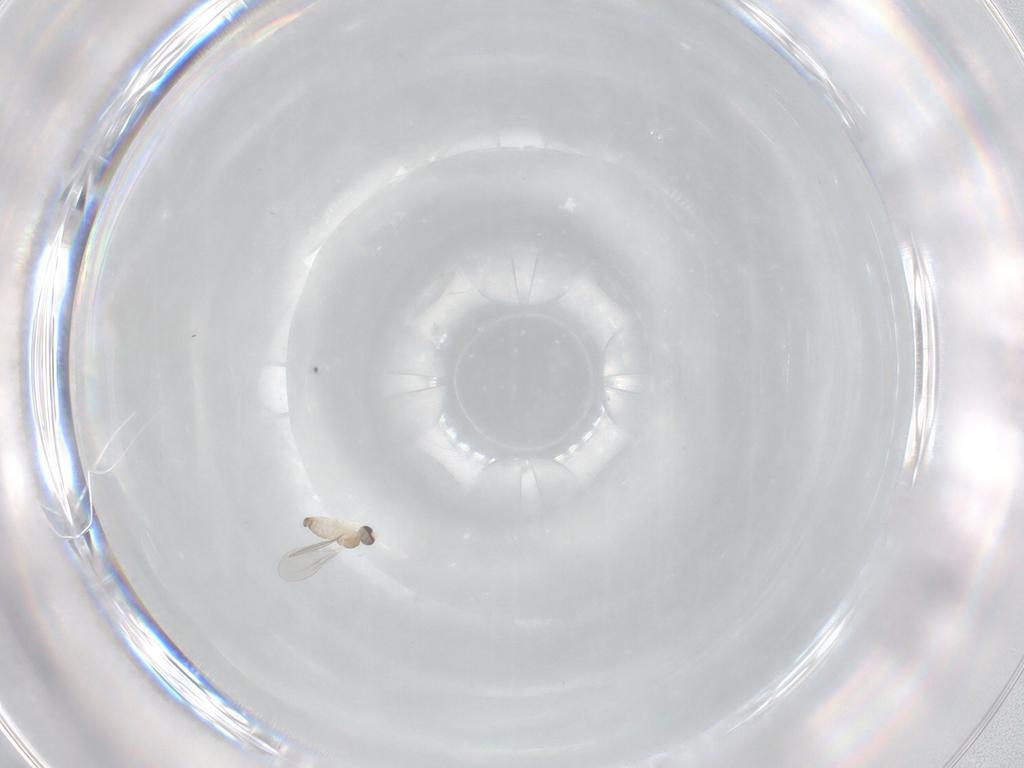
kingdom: Animalia
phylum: Arthropoda
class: Insecta
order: Diptera
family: Cecidomyiidae
